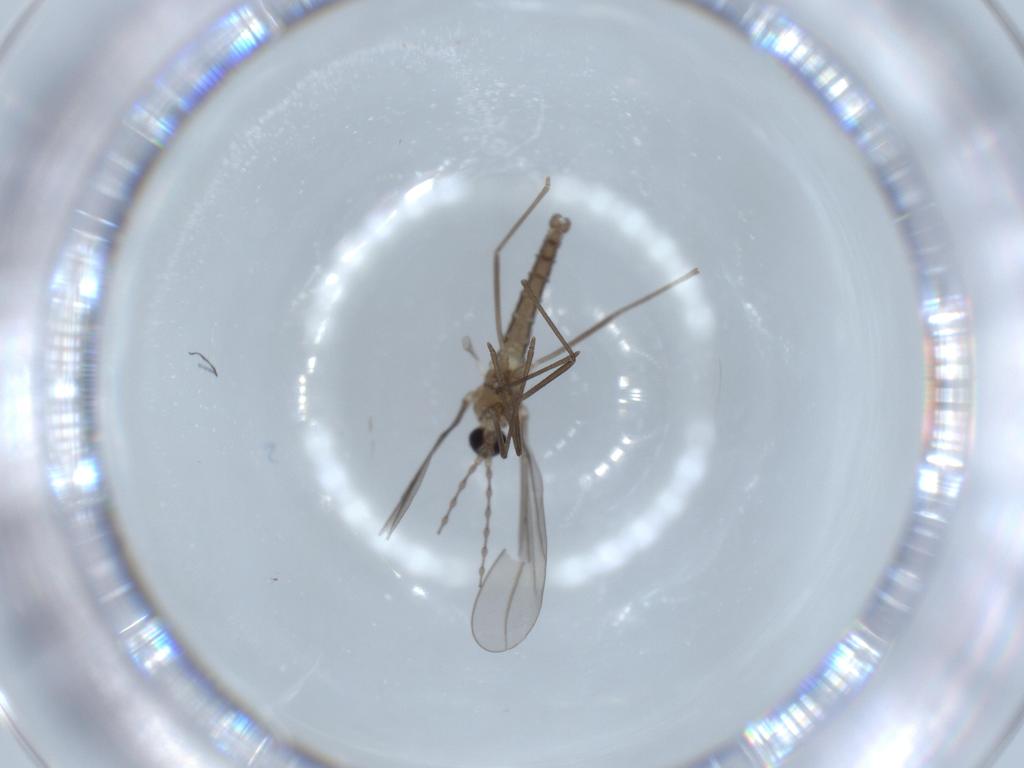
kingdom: Animalia
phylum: Arthropoda
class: Insecta
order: Diptera
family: Cecidomyiidae
